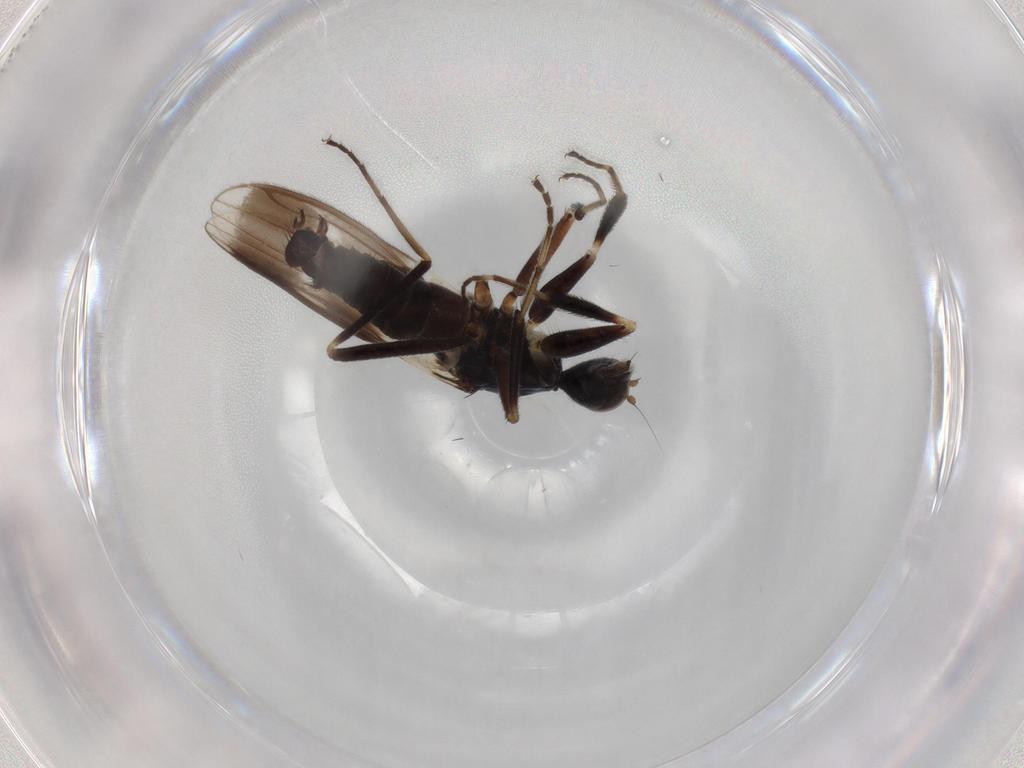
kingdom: Animalia
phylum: Arthropoda
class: Insecta
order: Diptera
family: Hybotidae
